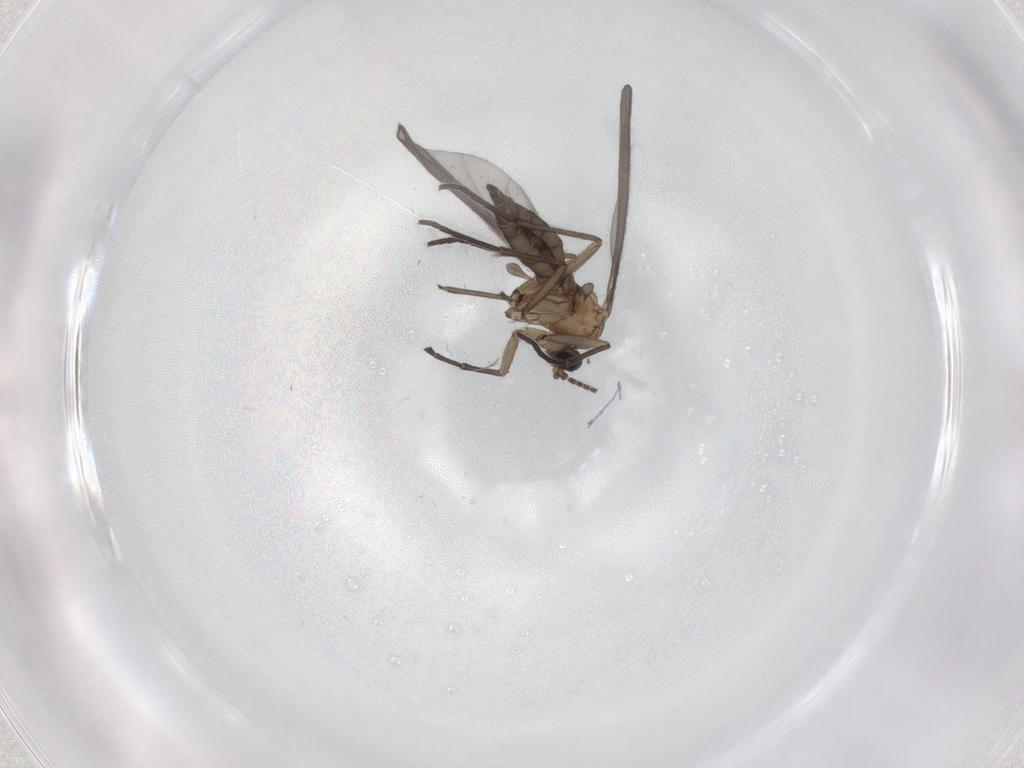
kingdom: Animalia
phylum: Arthropoda
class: Insecta
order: Diptera
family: Sciaridae
